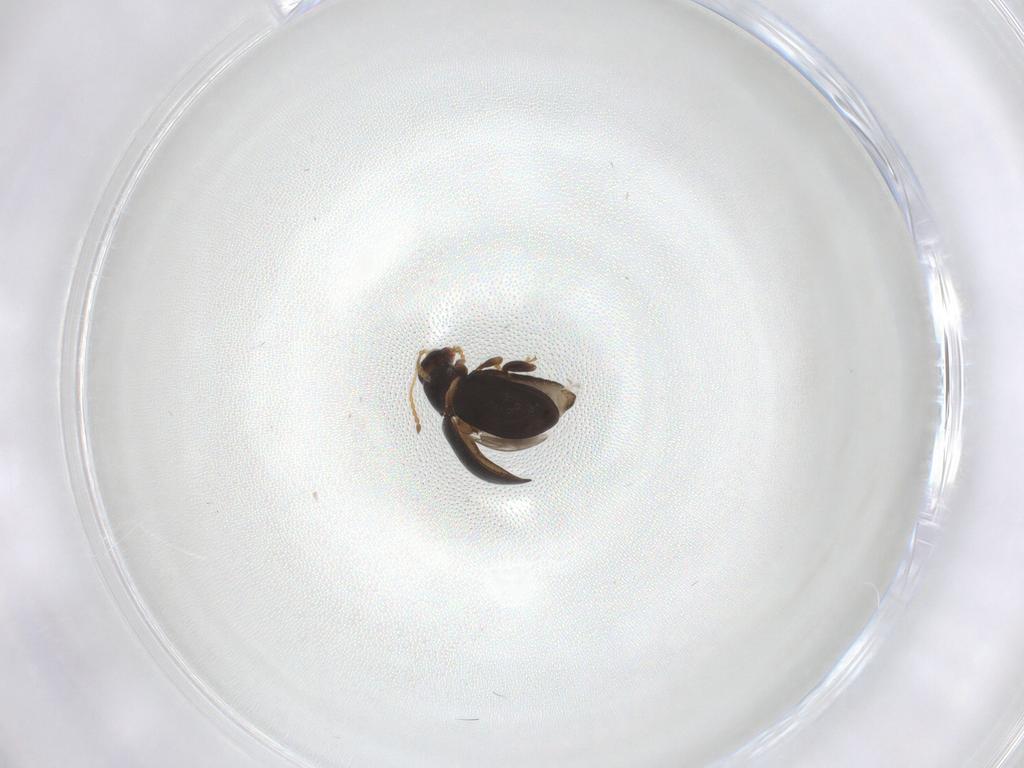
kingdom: Animalia
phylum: Arthropoda
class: Insecta
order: Coleoptera
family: Chrysomelidae
